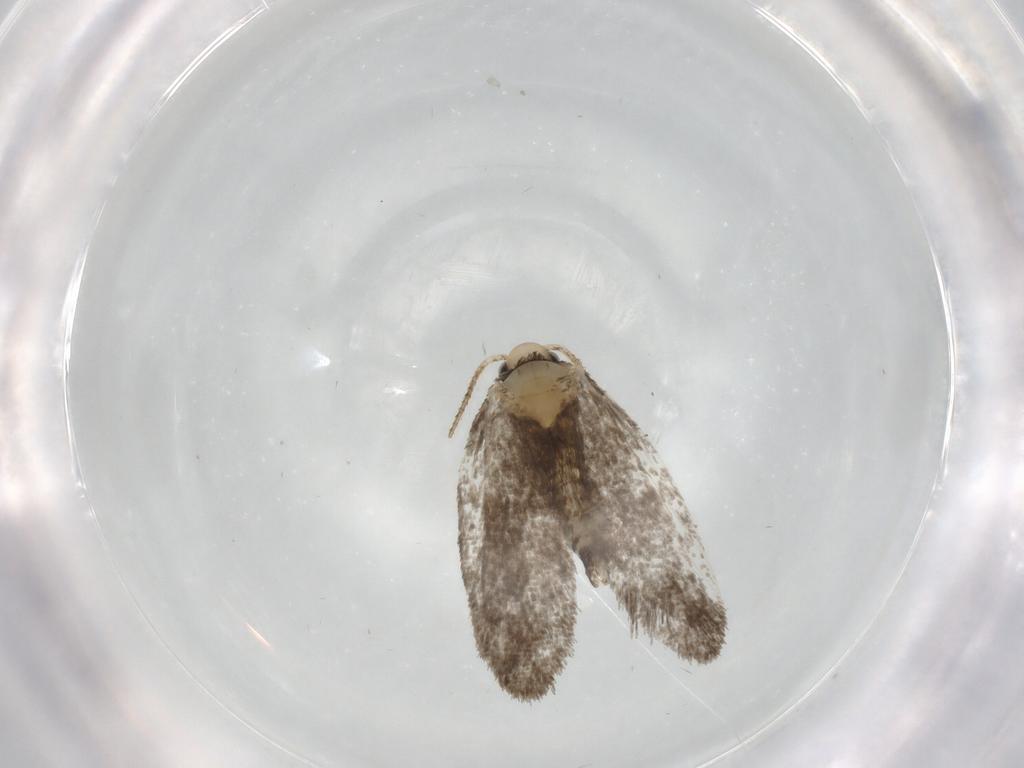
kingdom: Animalia
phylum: Arthropoda
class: Insecta
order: Lepidoptera
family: Psychidae
